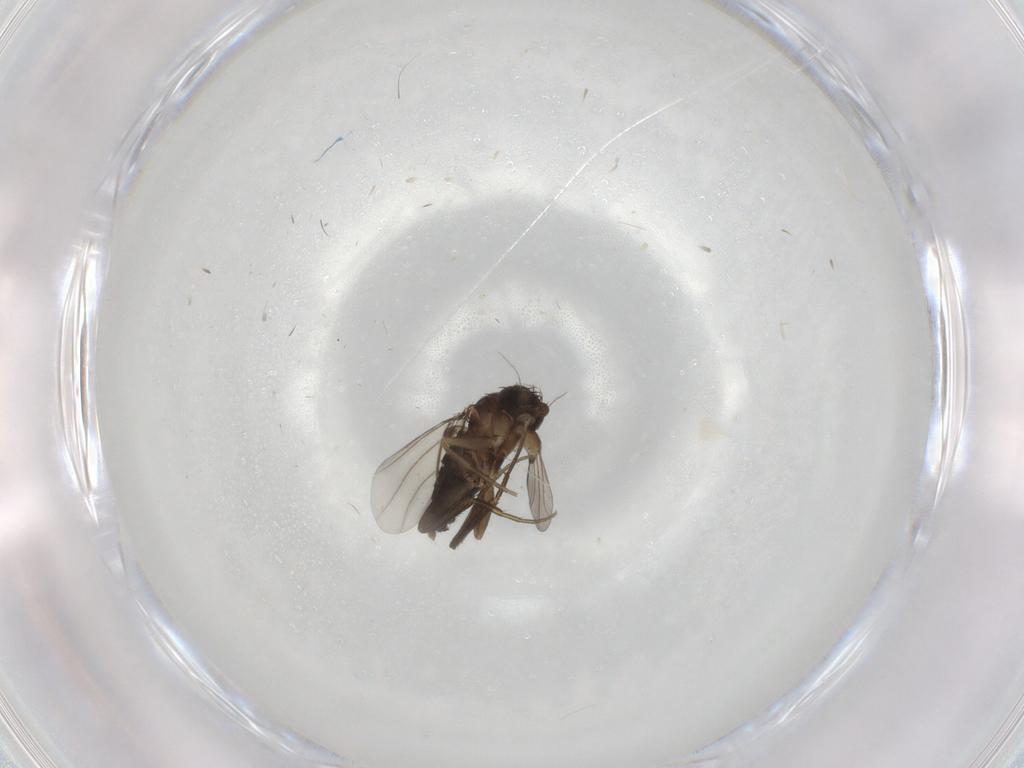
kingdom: Animalia
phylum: Arthropoda
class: Insecta
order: Diptera
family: Phoridae
